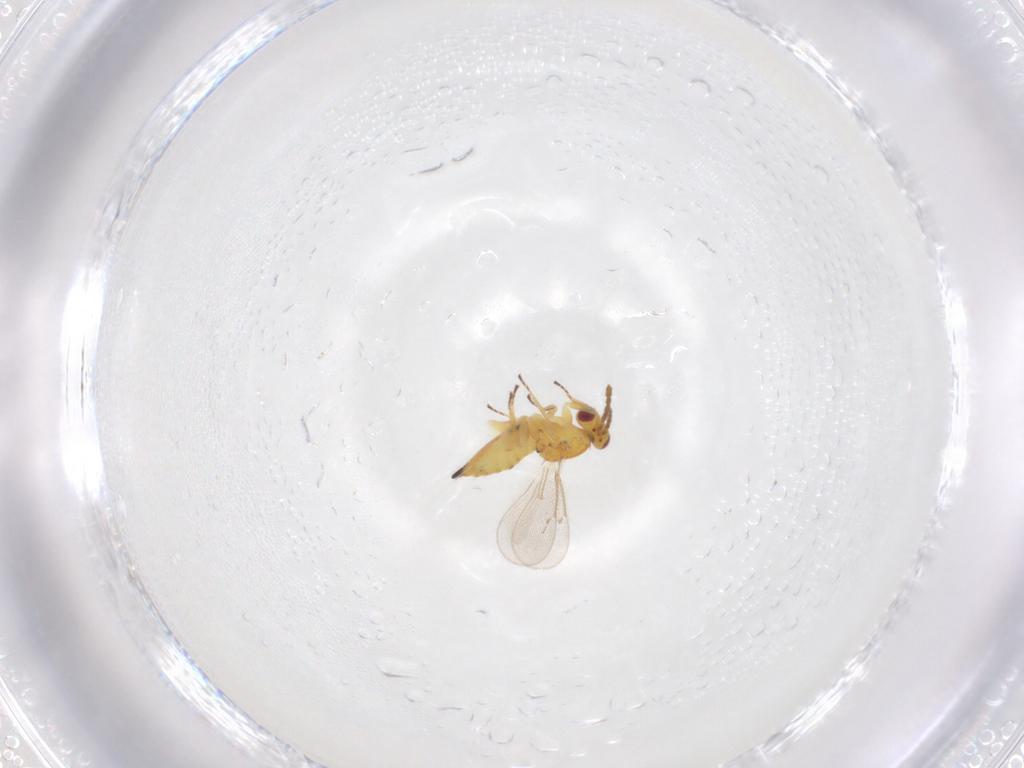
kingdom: Animalia
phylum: Arthropoda
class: Insecta
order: Hymenoptera
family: Eulophidae
